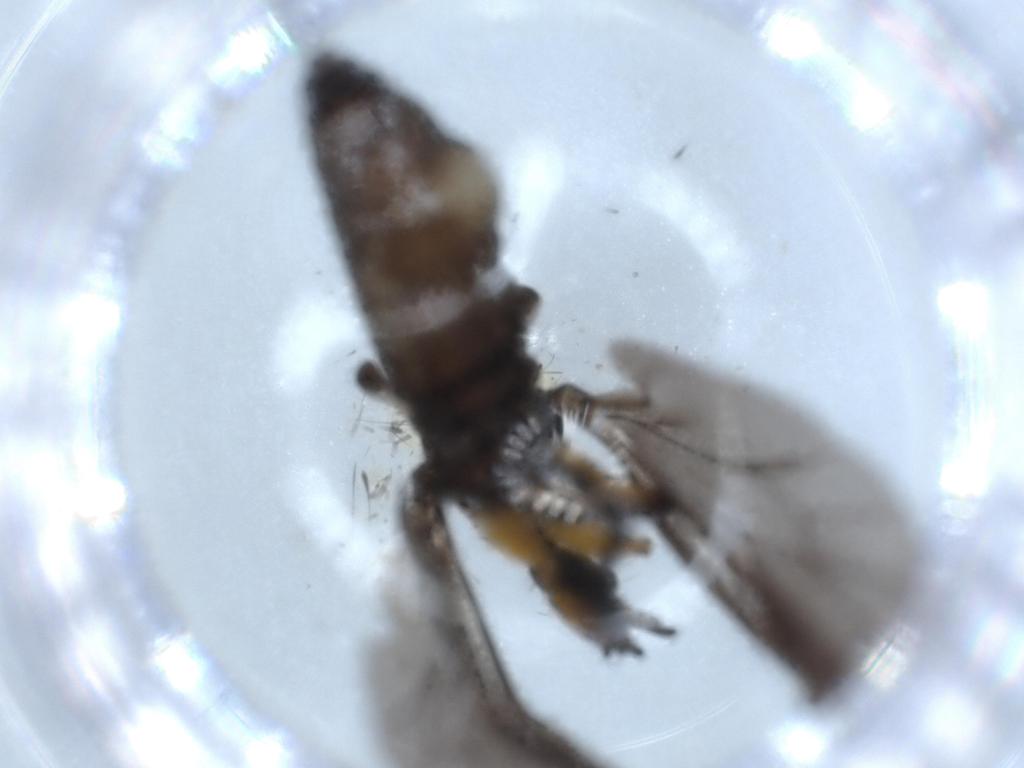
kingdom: Animalia
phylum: Arthropoda
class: Insecta
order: Diptera
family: Bibionidae
